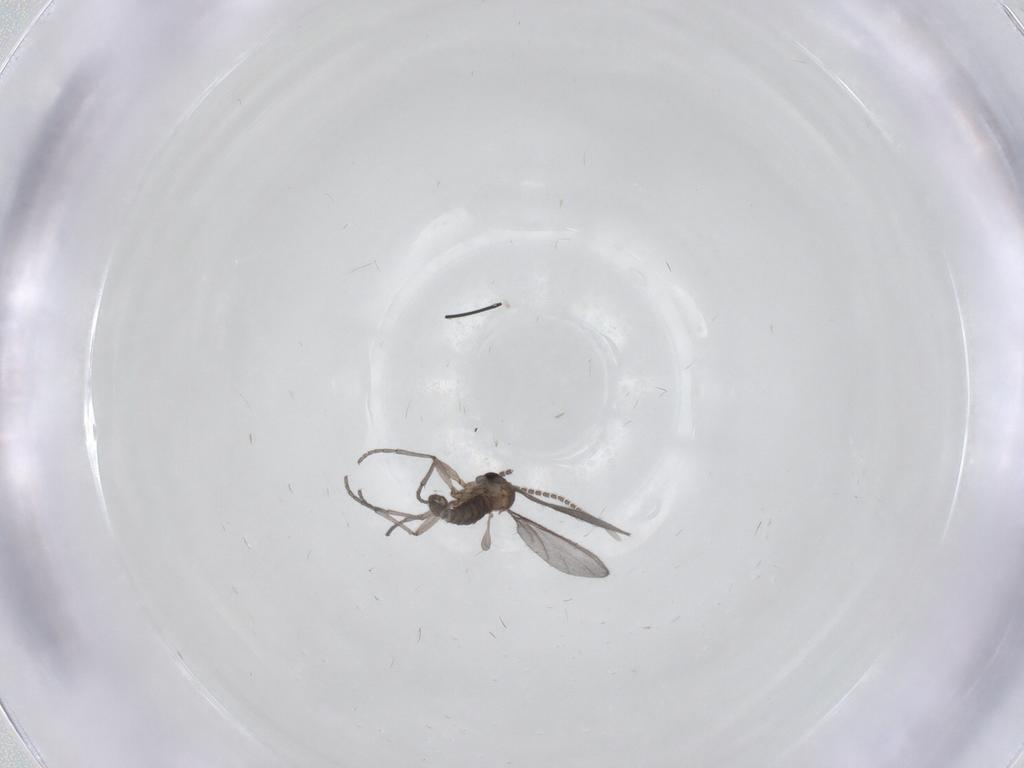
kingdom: Animalia
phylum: Arthropoda
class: Insecta
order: Diptera
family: Sciaridae
